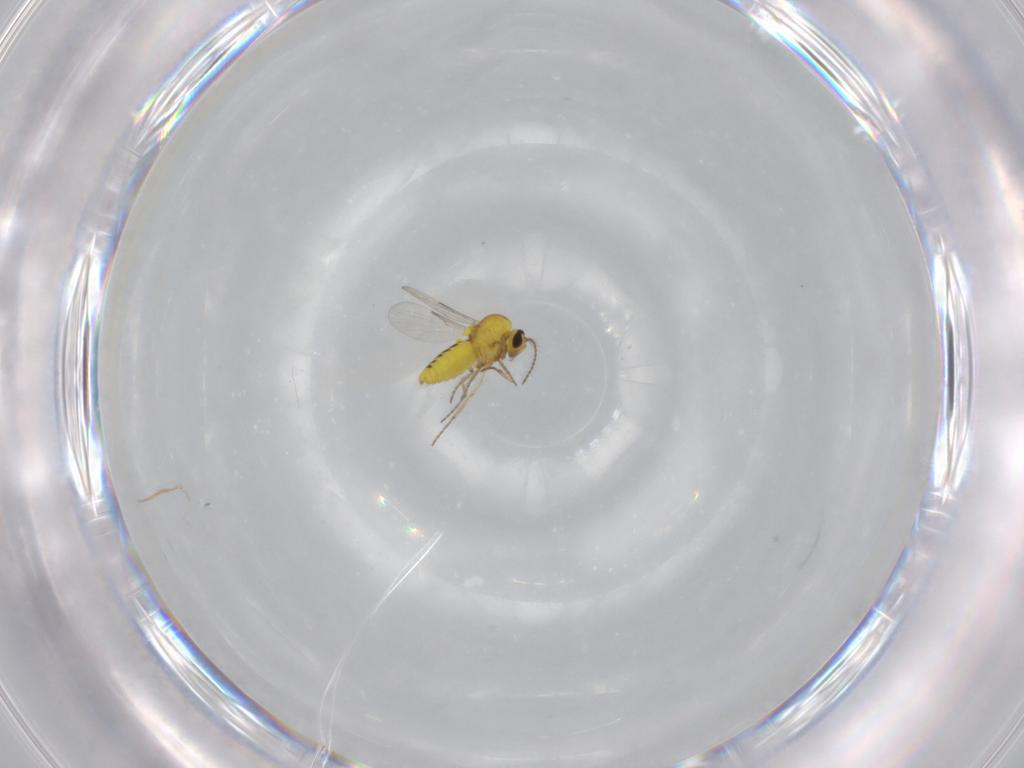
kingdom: Animalia
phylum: Arthropoda
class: Insecta
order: Diptera
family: Ceratopogonidae
